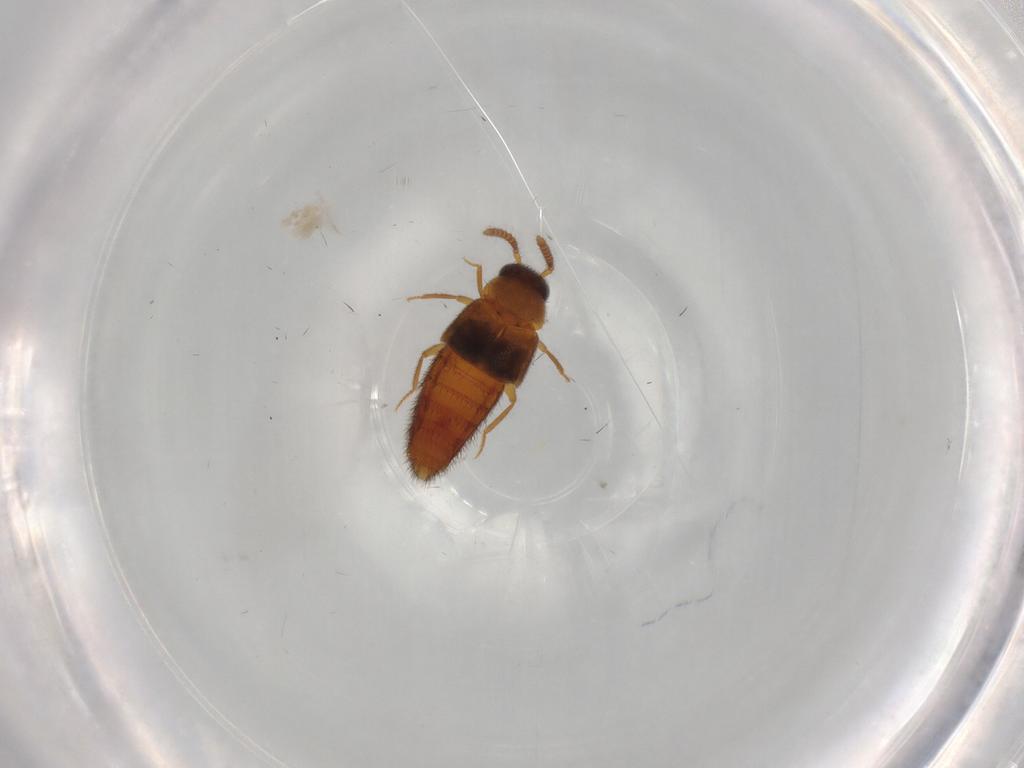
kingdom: Animalia
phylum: Arthropoda
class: Insecta
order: Coleoptera
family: Staphylinidae
